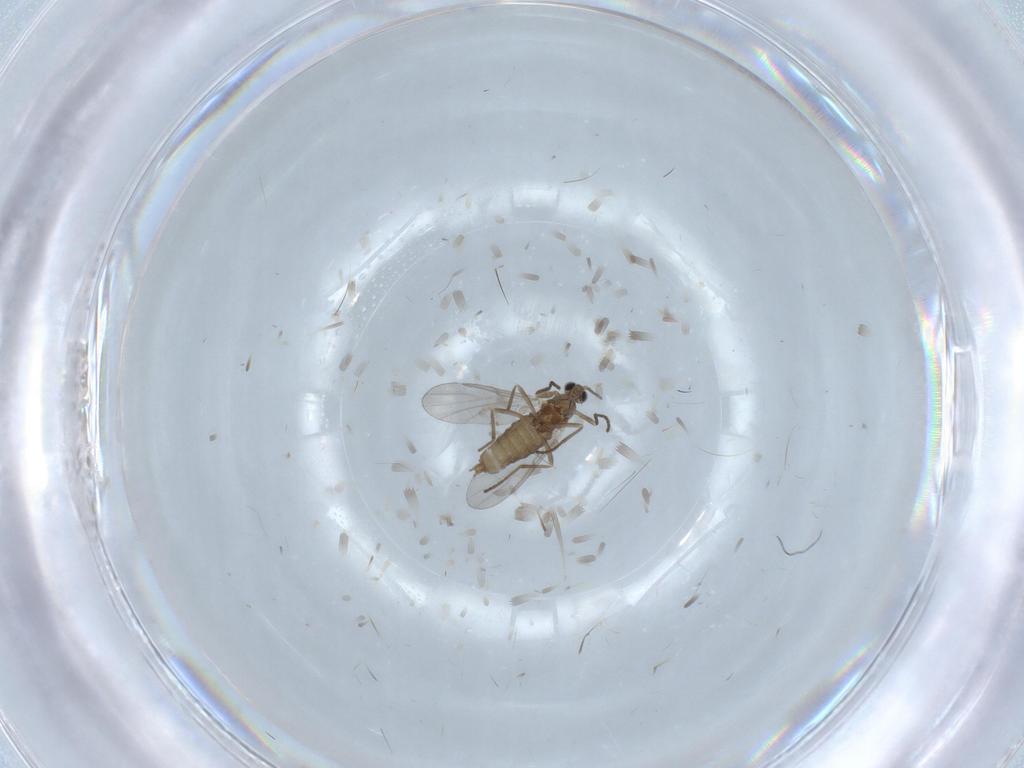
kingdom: Animalia
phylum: Arthropoda
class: Insecta
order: Diptera
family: Cecidomyiidae
